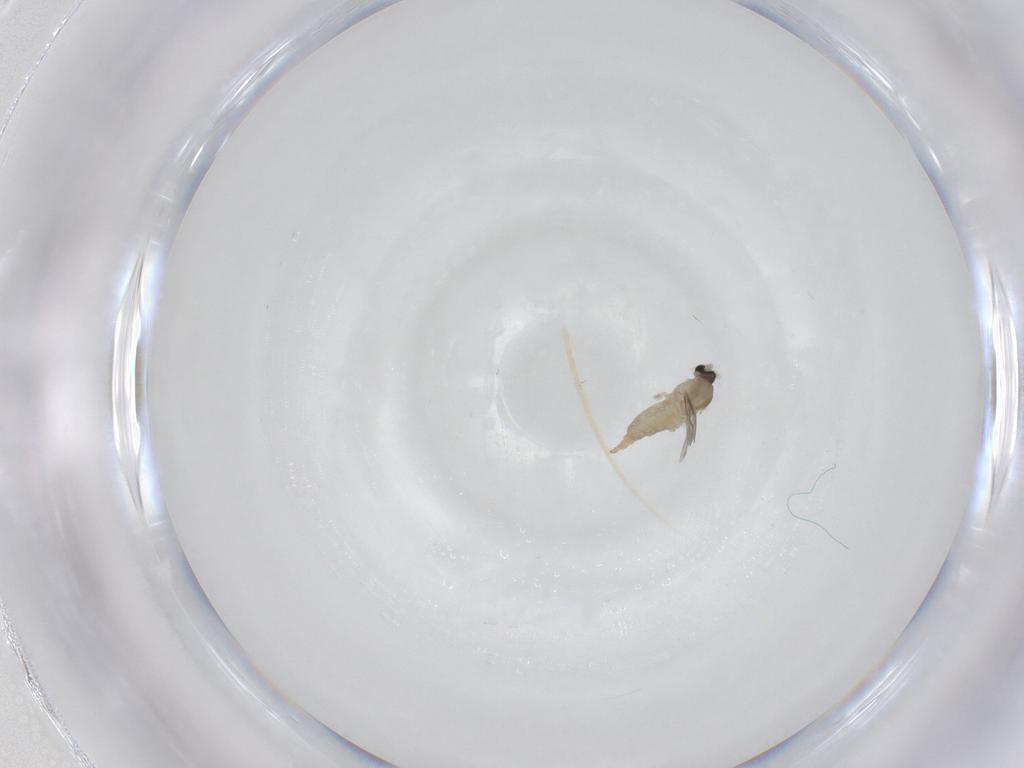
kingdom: Animalia
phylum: Arthropoda
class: Insecta
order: Diptera
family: Cecidomyiidae
